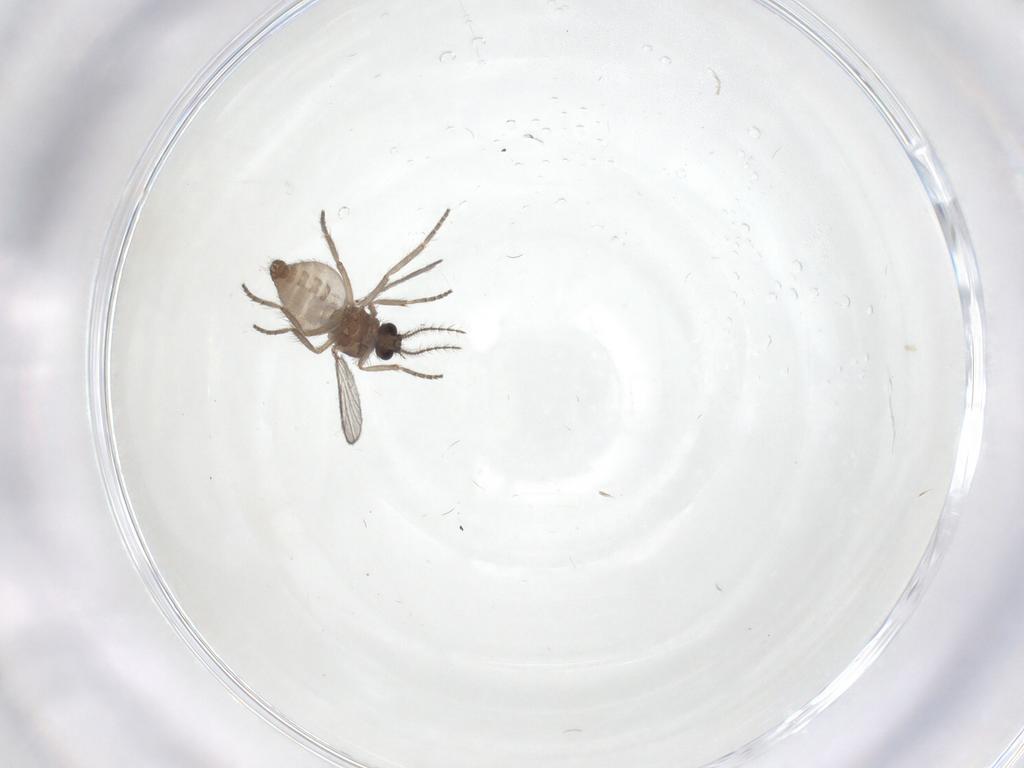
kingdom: Animalia
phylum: Arthropoda
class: Insecta
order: Diptera
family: Ceratopogonidae
